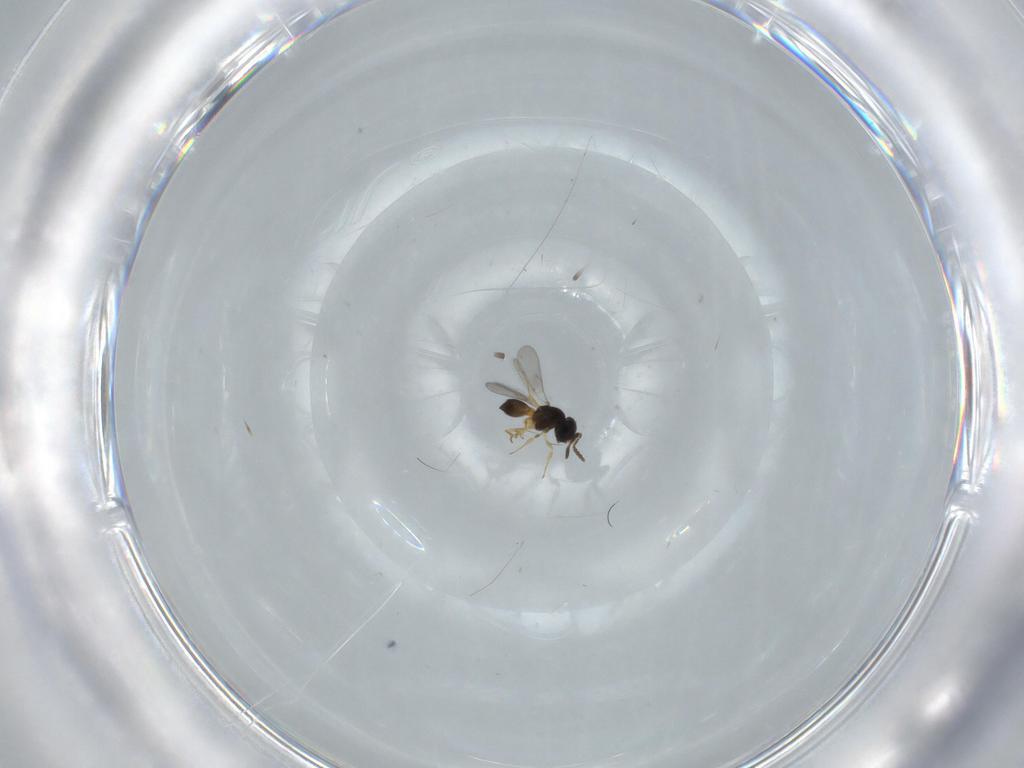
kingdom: Animalia
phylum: Arthropoda
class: Insecta
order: Hymenoptera
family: Scelionidae
